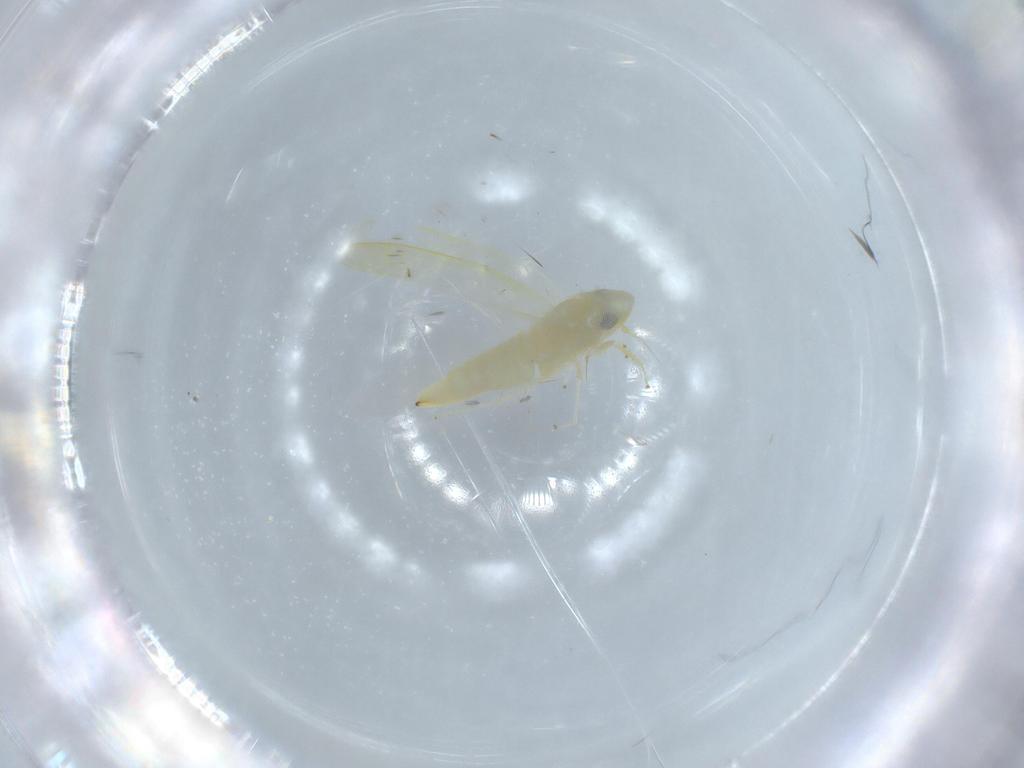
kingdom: Animalia
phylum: Arthropoda
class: Insecta
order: Hemiptera
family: Cicadellidae
